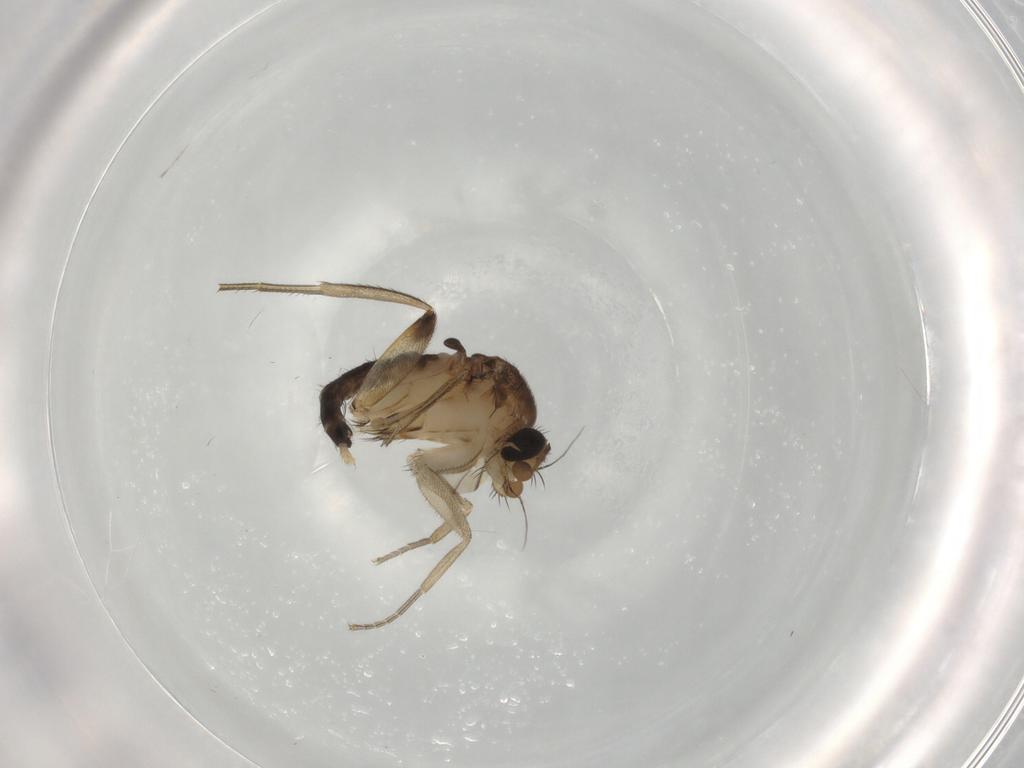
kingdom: Animalia
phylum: Arthropoda
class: Insecta
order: Diptera
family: Phoridae
